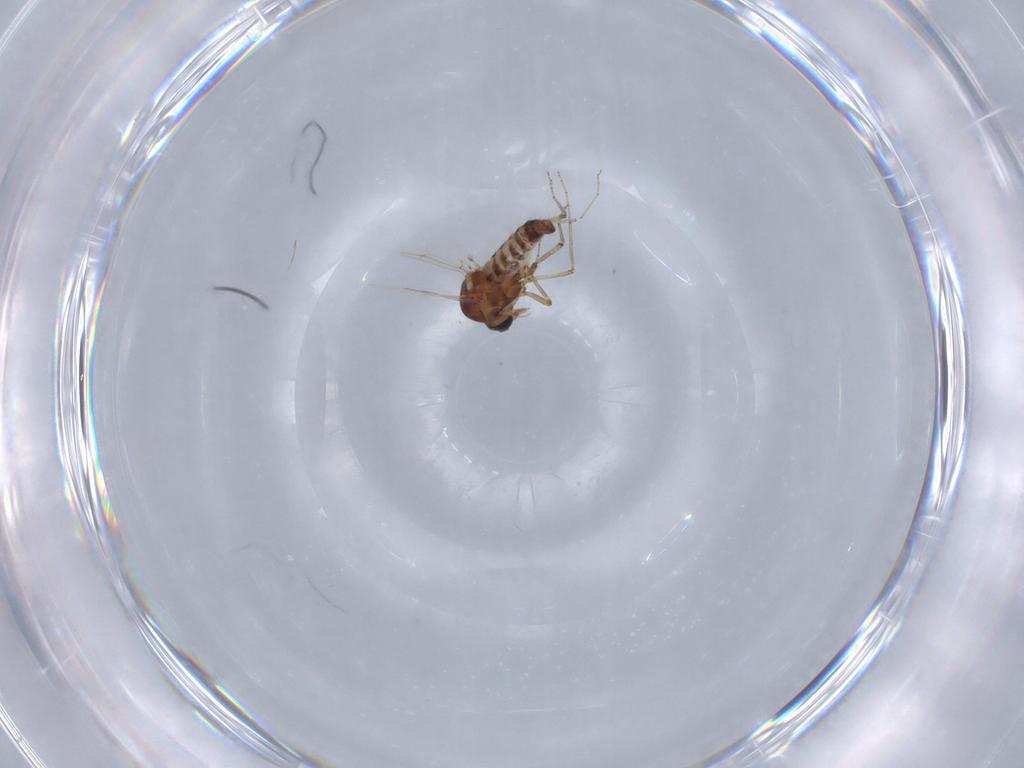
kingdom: Animalia
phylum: Arthropoda
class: Insecta
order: Diptera
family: Ceratopogonidae
